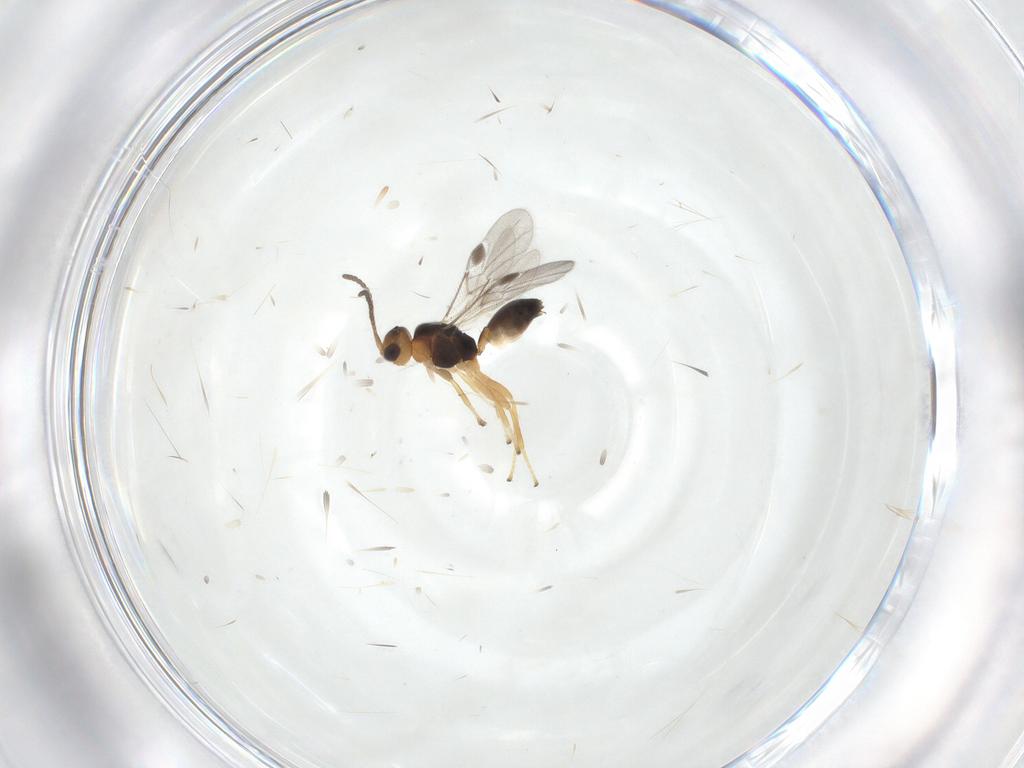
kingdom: Animalia
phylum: Arthropoda
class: Insecta
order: Hymenoptera
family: Braconidae
